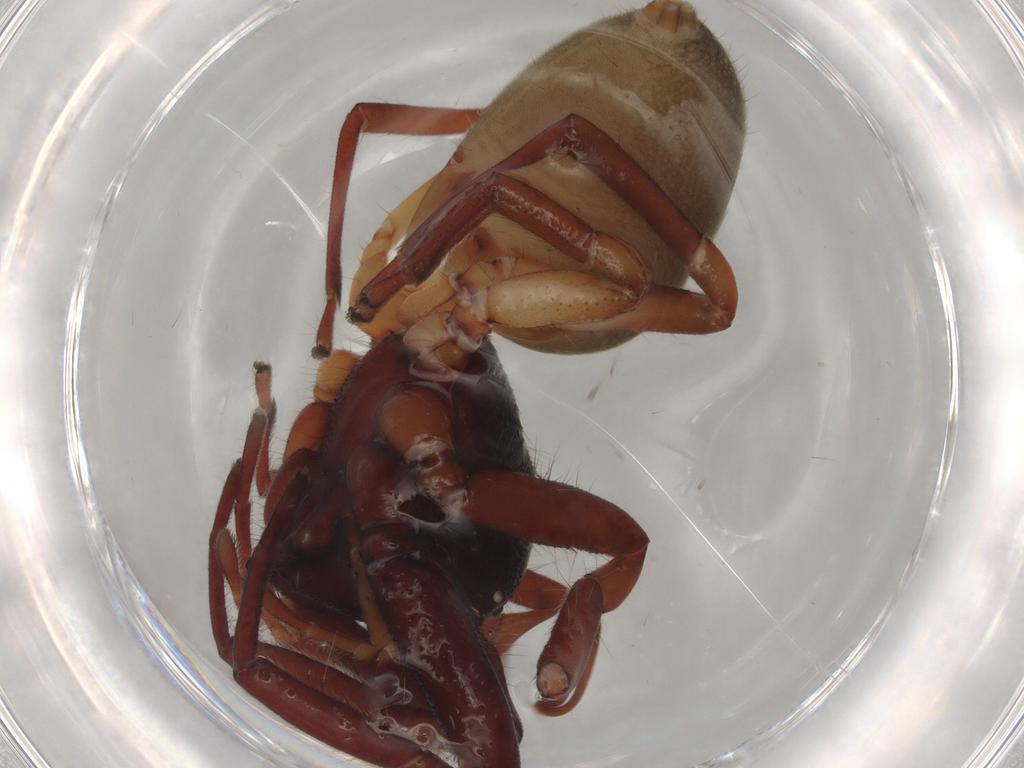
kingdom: Animalia
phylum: Arthropoda
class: Arachnida
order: Araneae
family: Trachelidae
